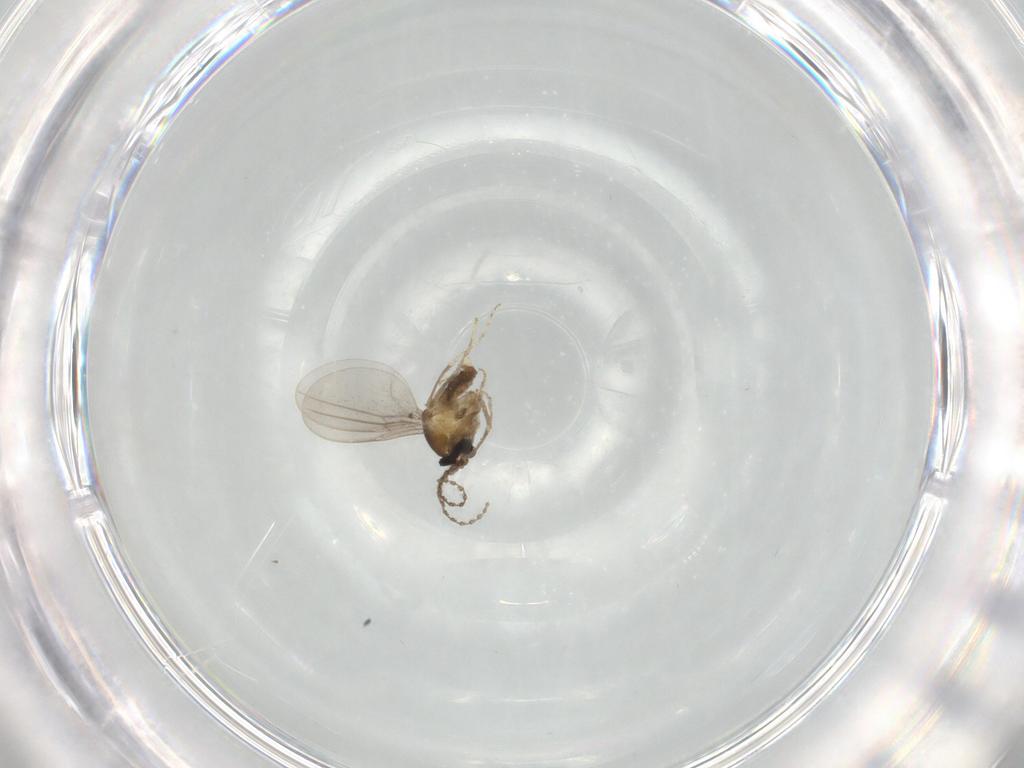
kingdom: Animalia
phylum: Arthropoda
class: Insecta
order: Diptera
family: Cecidomyiidae
